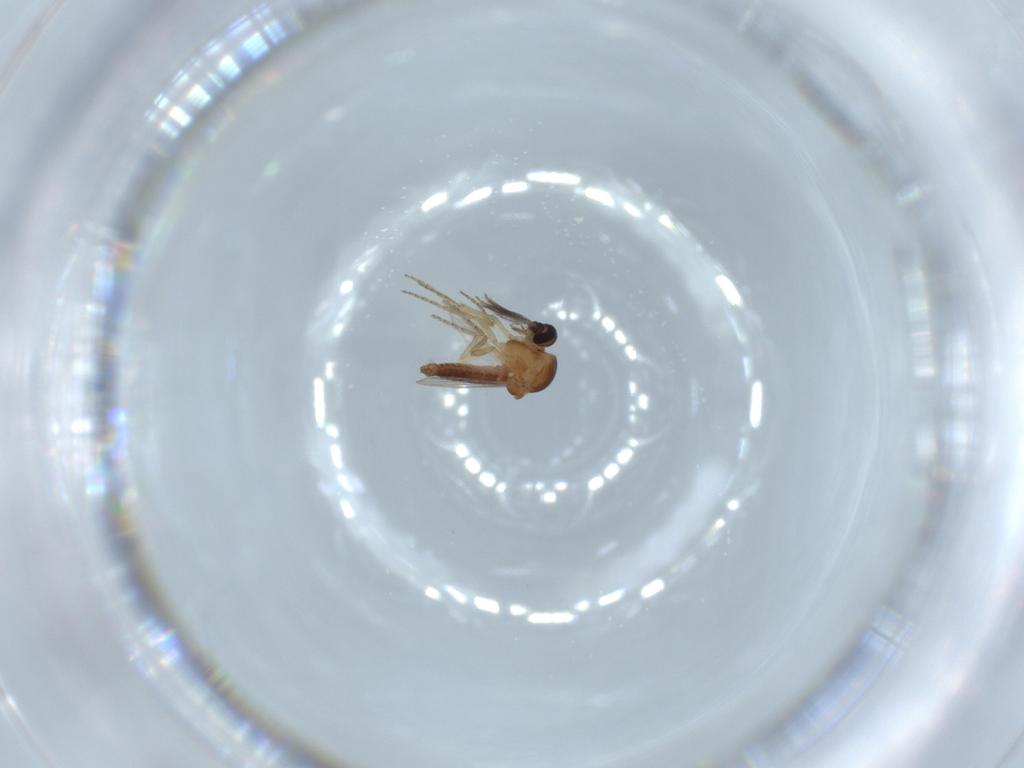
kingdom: Animalia
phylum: Arthropoda
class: Insecta
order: Diptera
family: Ceratopogonidae
